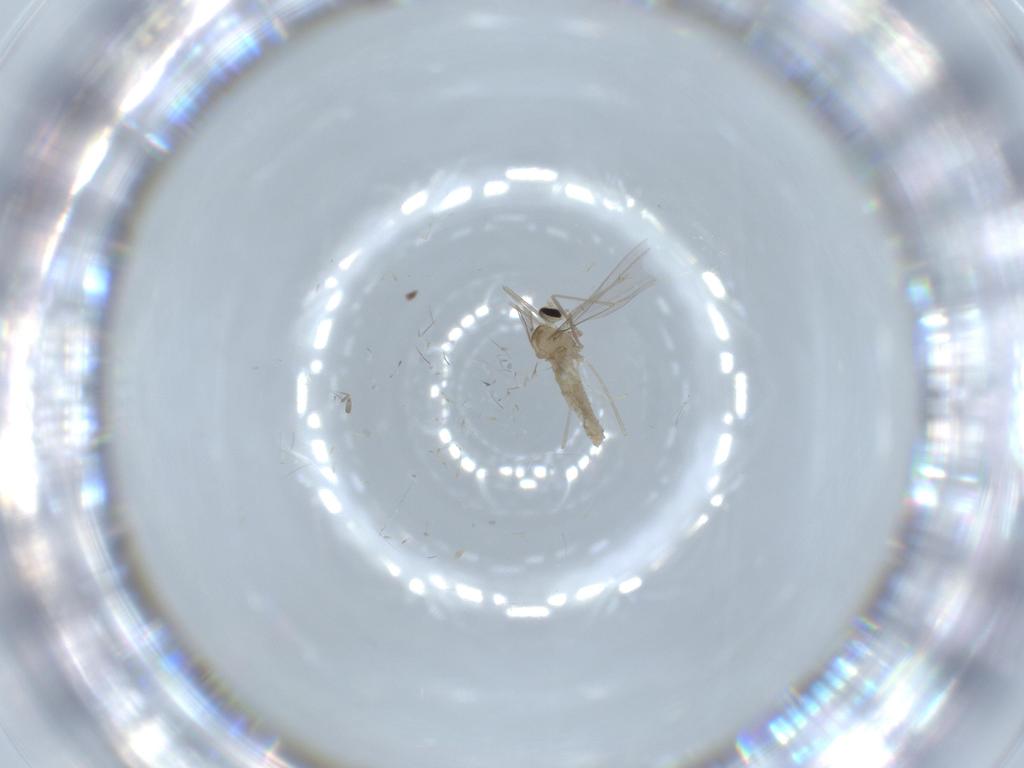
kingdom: Animalia
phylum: Arthropoda
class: Insecta
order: Diptera
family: Cecidomyiidae
